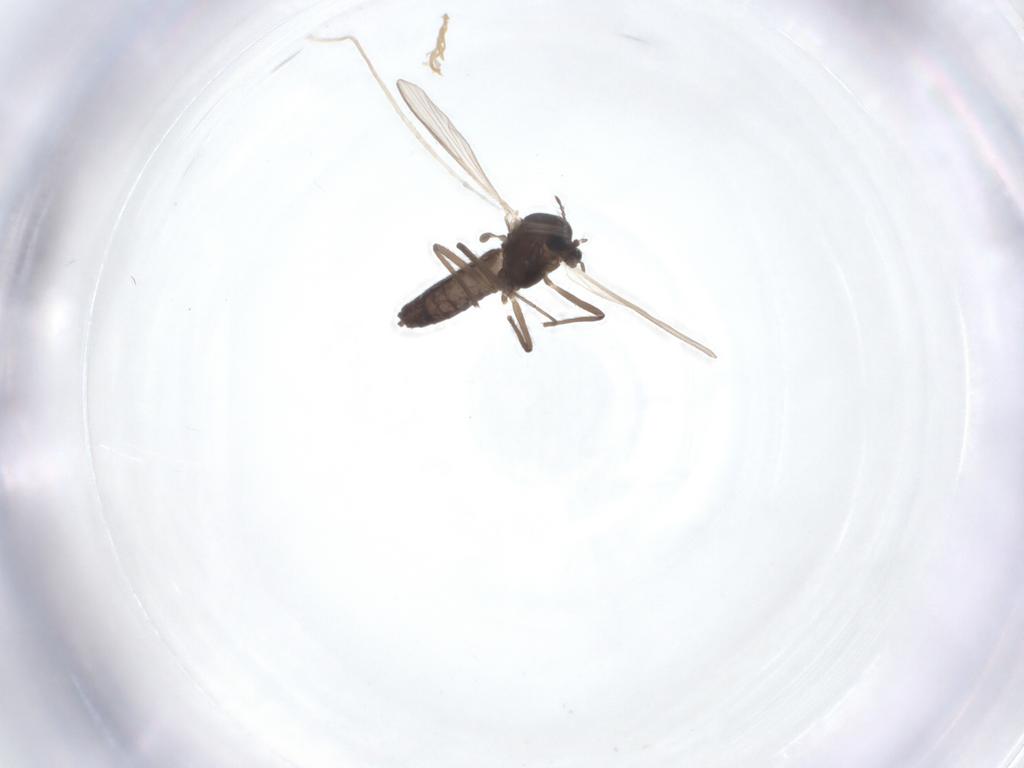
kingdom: Animalia
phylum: Arthropoda
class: Insecta
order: Diptera
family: Chironomidae
